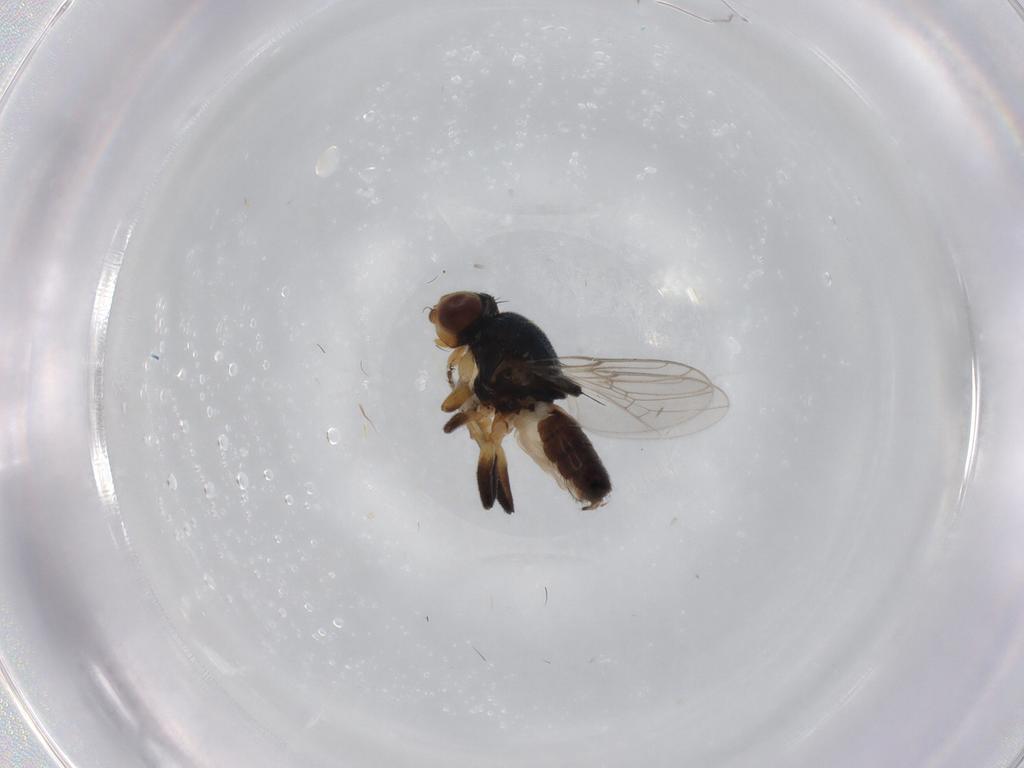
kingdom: Animalia
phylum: Arthropoda
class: Insecta
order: Diptera
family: Chloropidae
